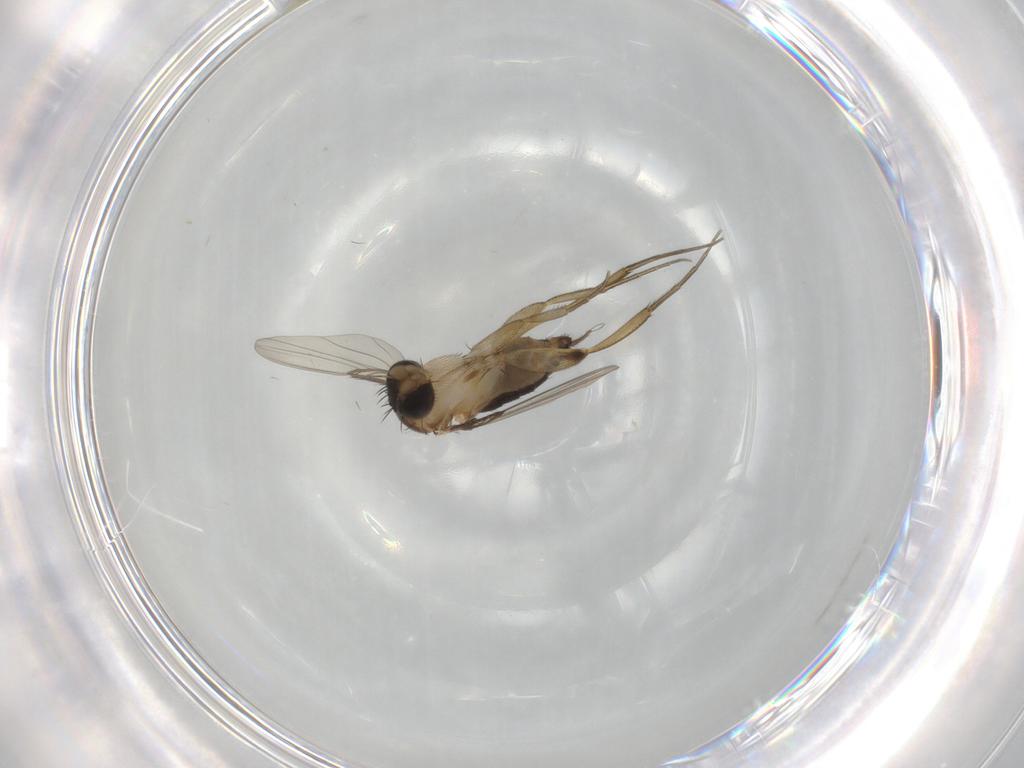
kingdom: Animalia
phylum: Arthropoda
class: Insecta
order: Diptera
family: Phoridae
